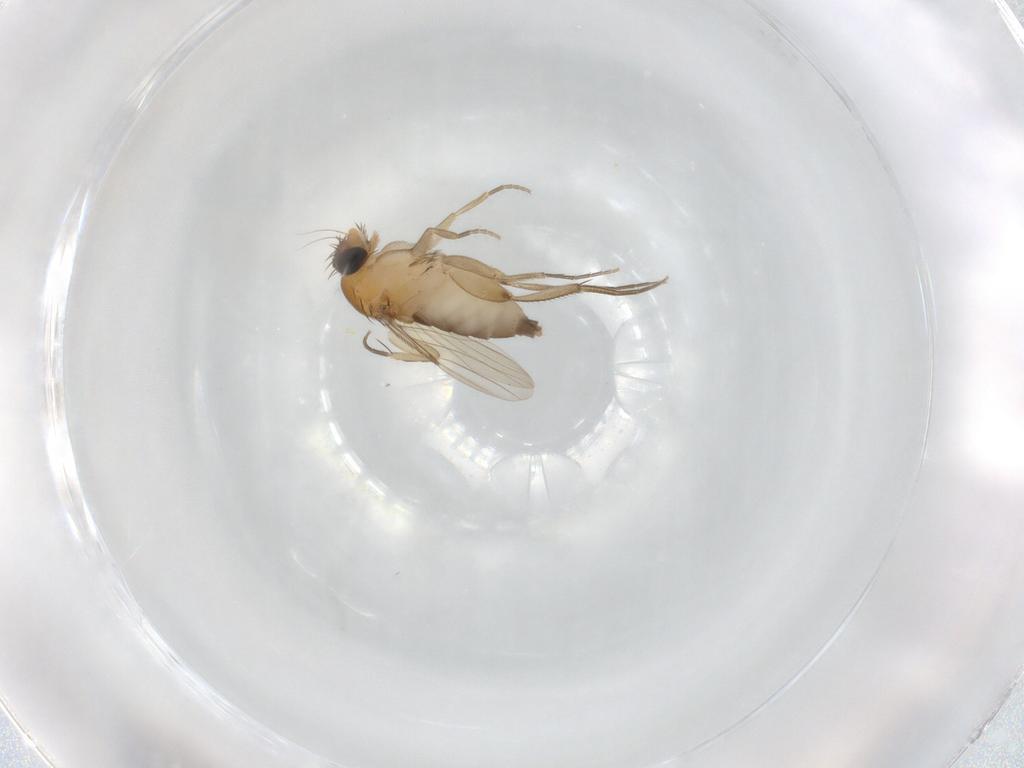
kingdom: Animalia
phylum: Arthropoda
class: Insecta
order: Diptera
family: Phoridae
